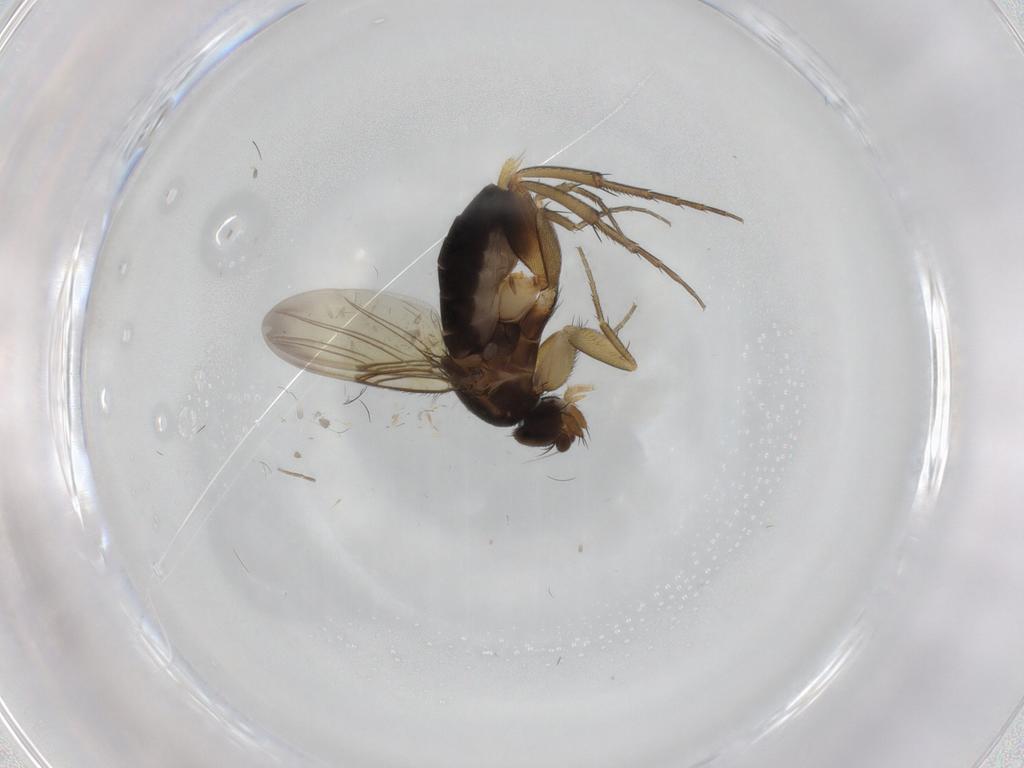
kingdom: Animalia
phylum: Arthropoda
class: Insecta
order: Diptera
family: Phoridae
